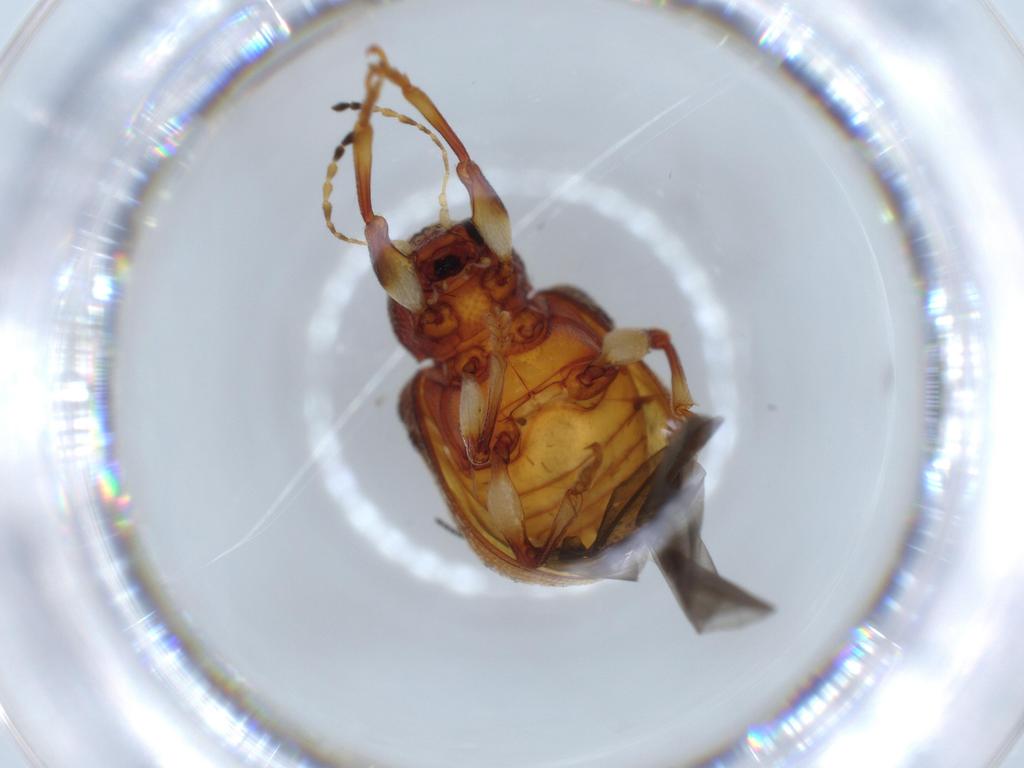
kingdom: Animalia
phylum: Arthropoda
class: Insecta
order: Coleoptera
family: Chrysomelidae
